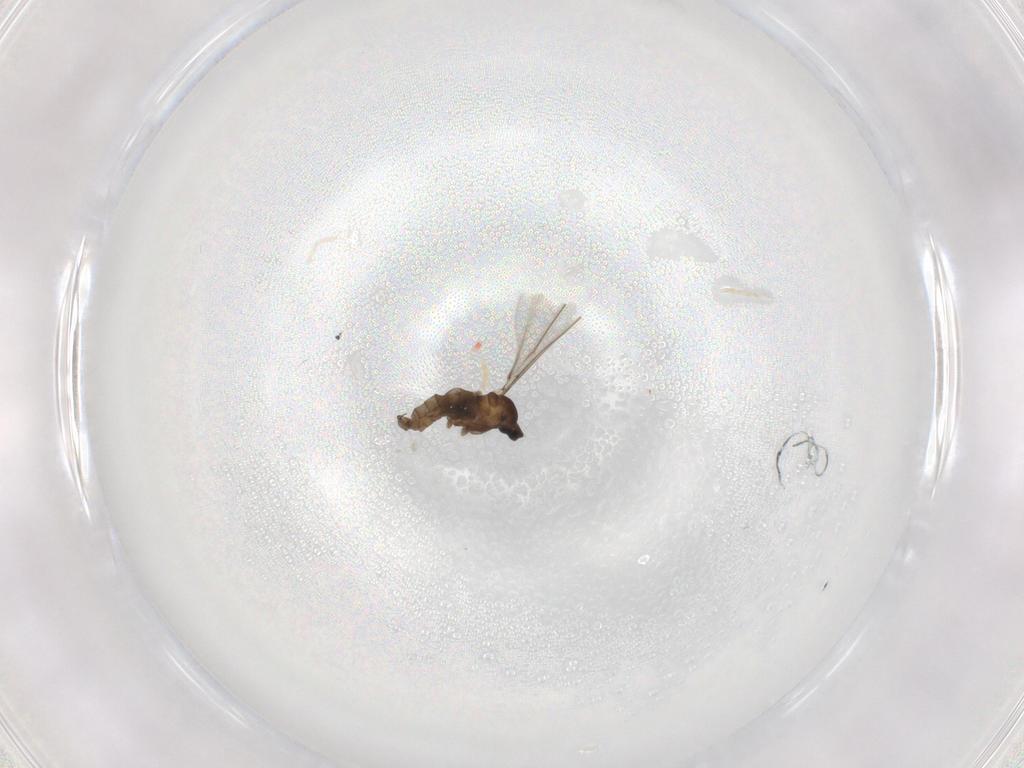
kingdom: Animalia
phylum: Arthropoda
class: Insecta
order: Diptera
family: Cecidomyiidae
